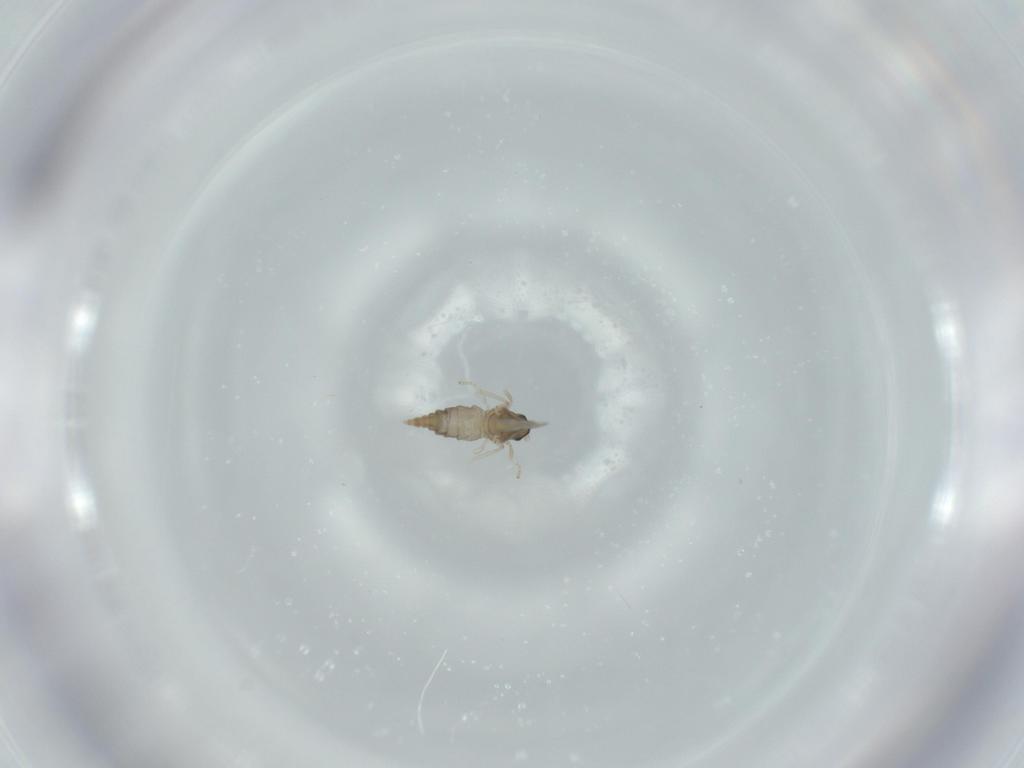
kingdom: Animalia
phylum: Arthropoda
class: Insecta
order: Diptera
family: Cecidomyiidae
